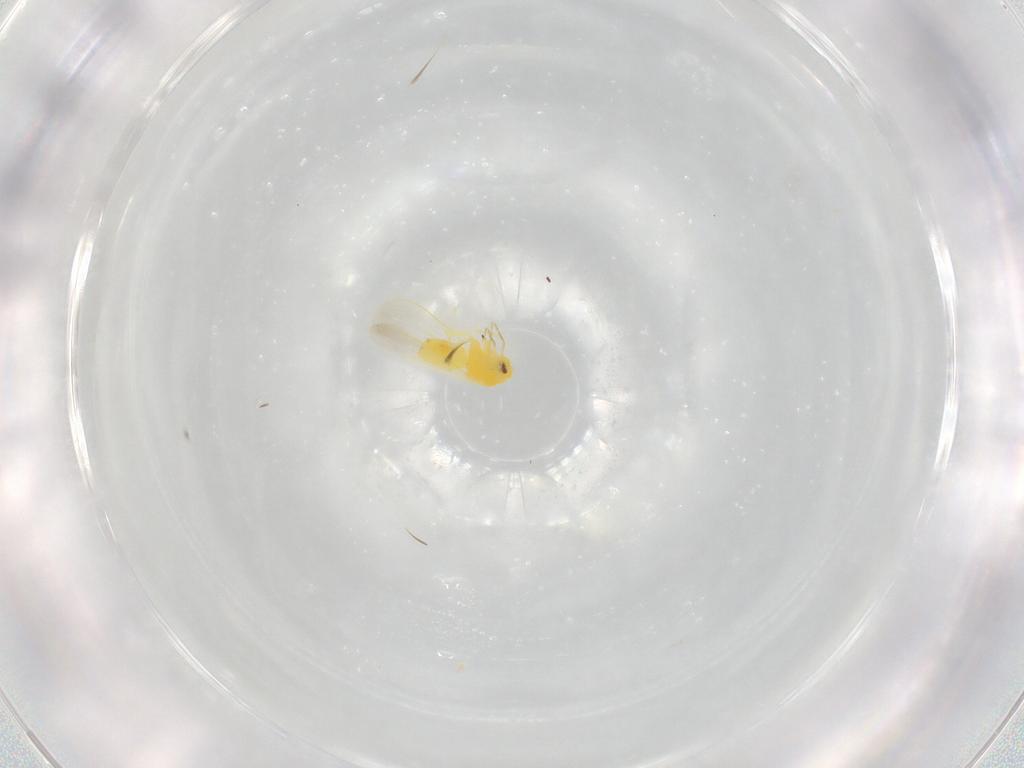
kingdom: Animalia
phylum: Arthropoda
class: Insecta
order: Hemiptera
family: Aleyrodidae
